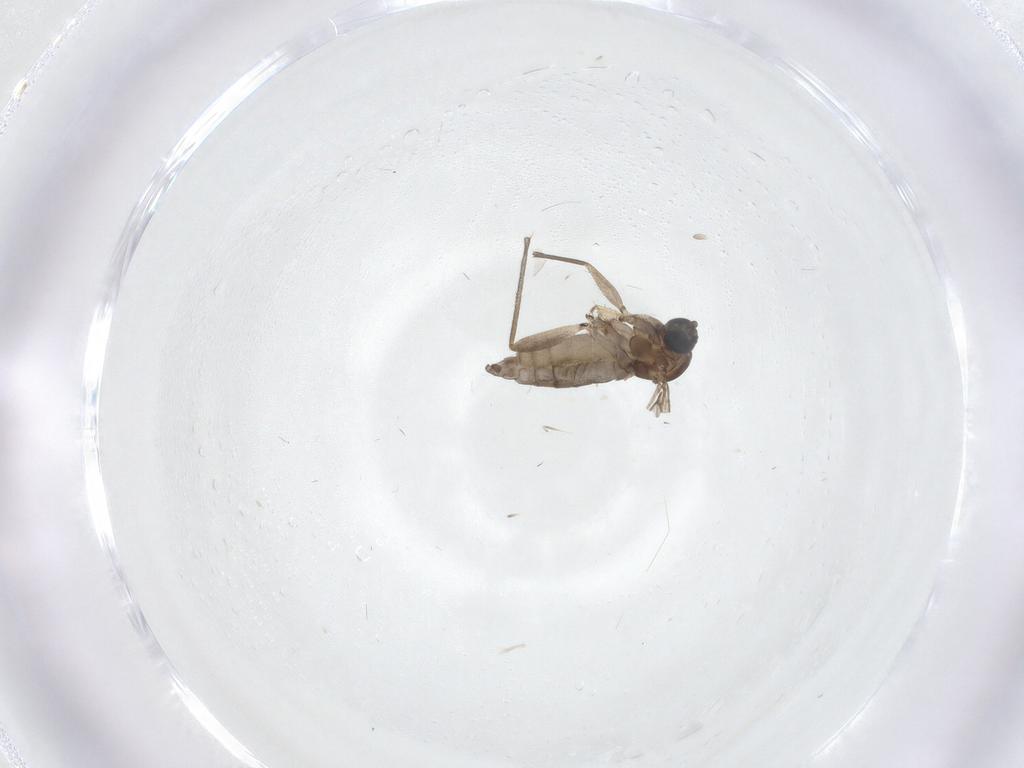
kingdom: Animalia
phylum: Arthropoda
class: Insecta
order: Diptera
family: Sciaridae
